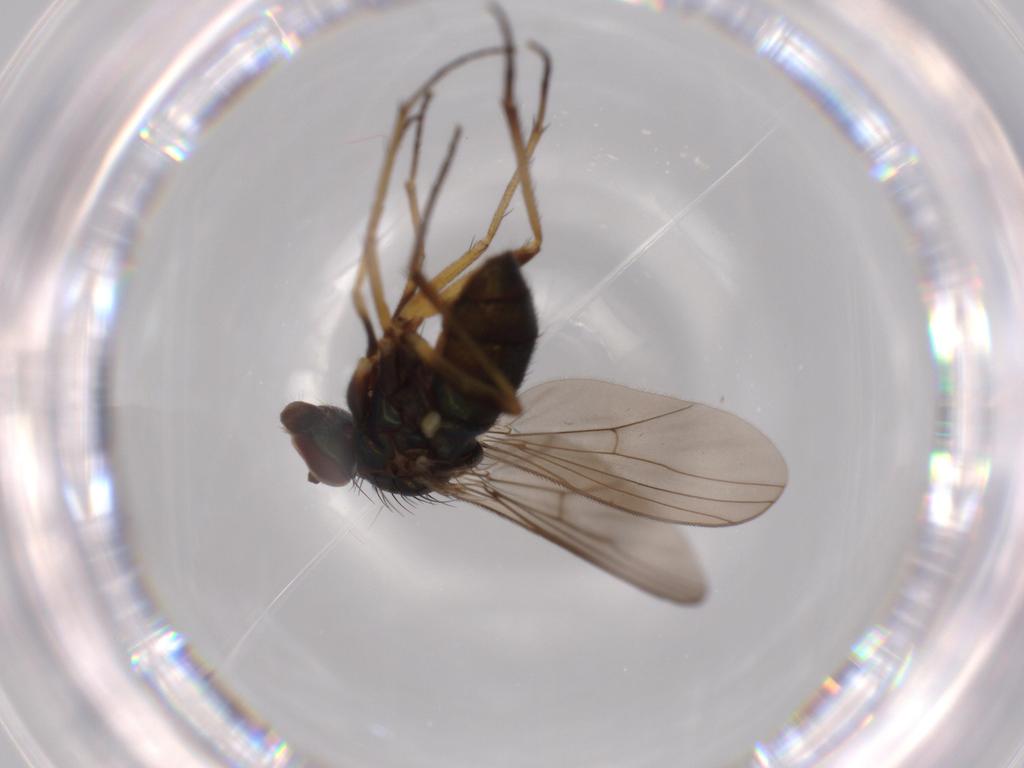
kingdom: Animalia
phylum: Arthropoda
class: Insecta
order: Diptera
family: Dolichopodidae
